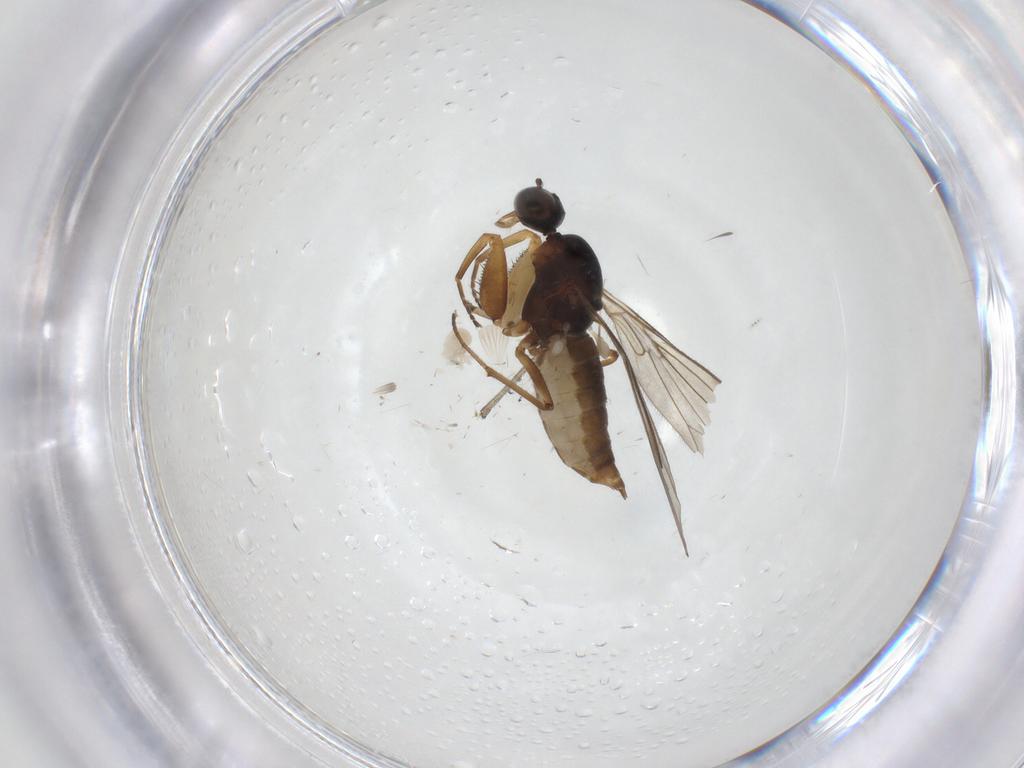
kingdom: Animalia
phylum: Arthropoda
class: Insecta
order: Diptera
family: Empididae
